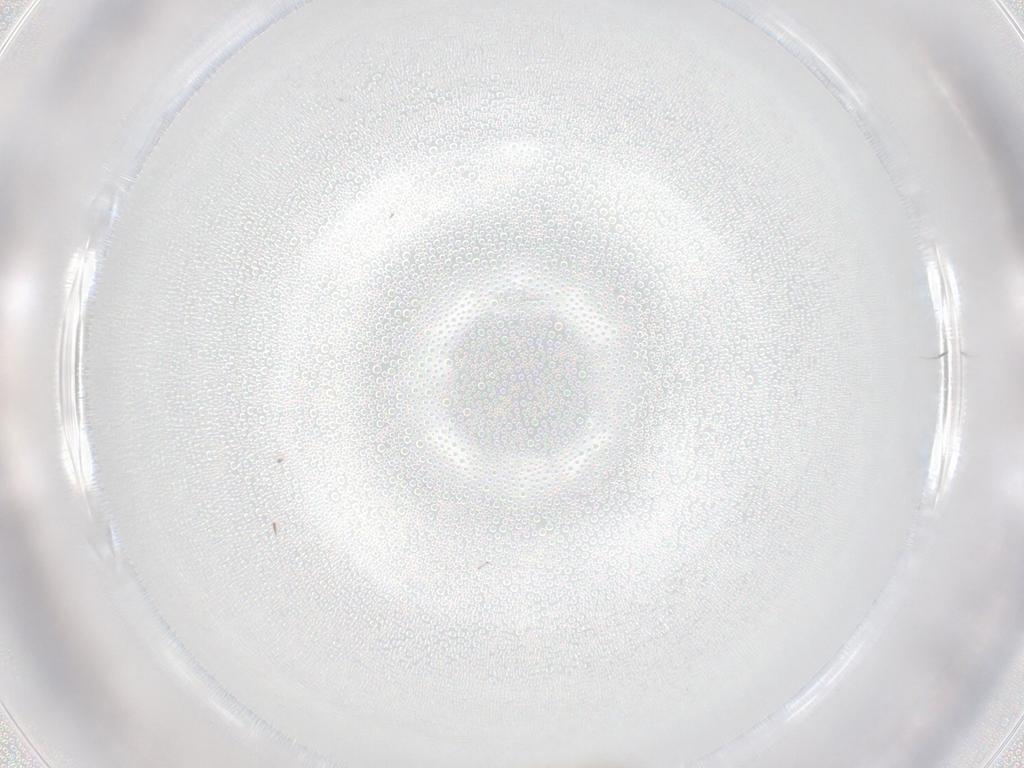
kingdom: Animalia
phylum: Arthropoda
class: Insecta
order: Diptera
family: Cecidomyiidae
